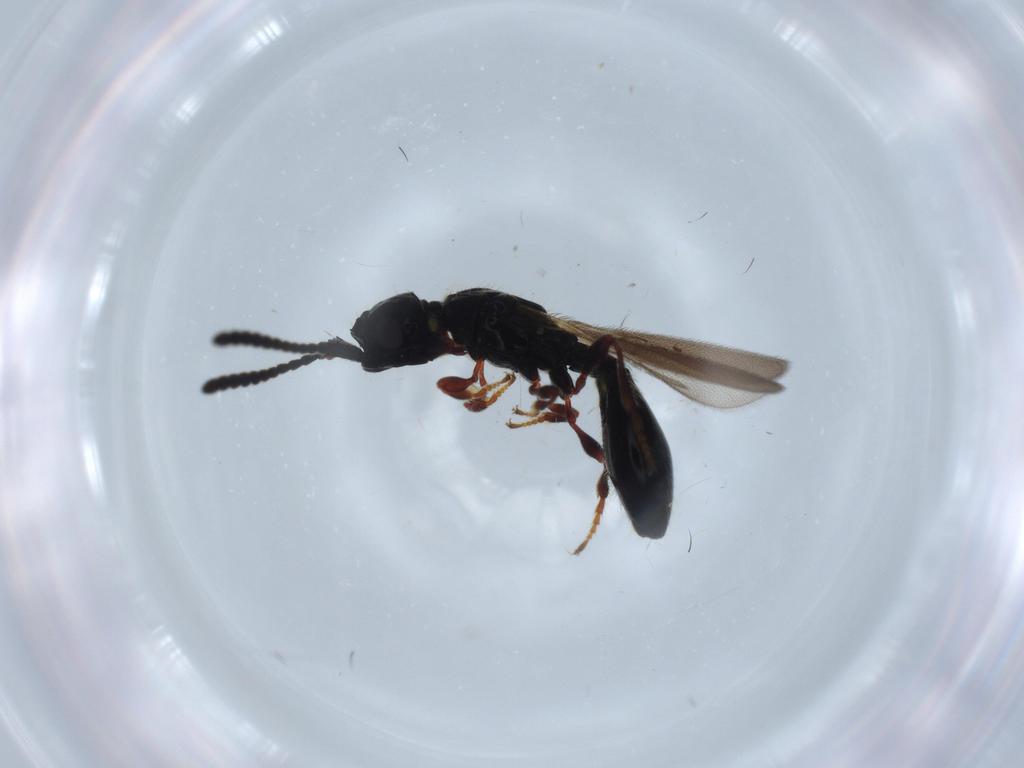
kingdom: Animalia
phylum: Arthropoda
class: Insecta
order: Hymenoptera
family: Diapriidae
